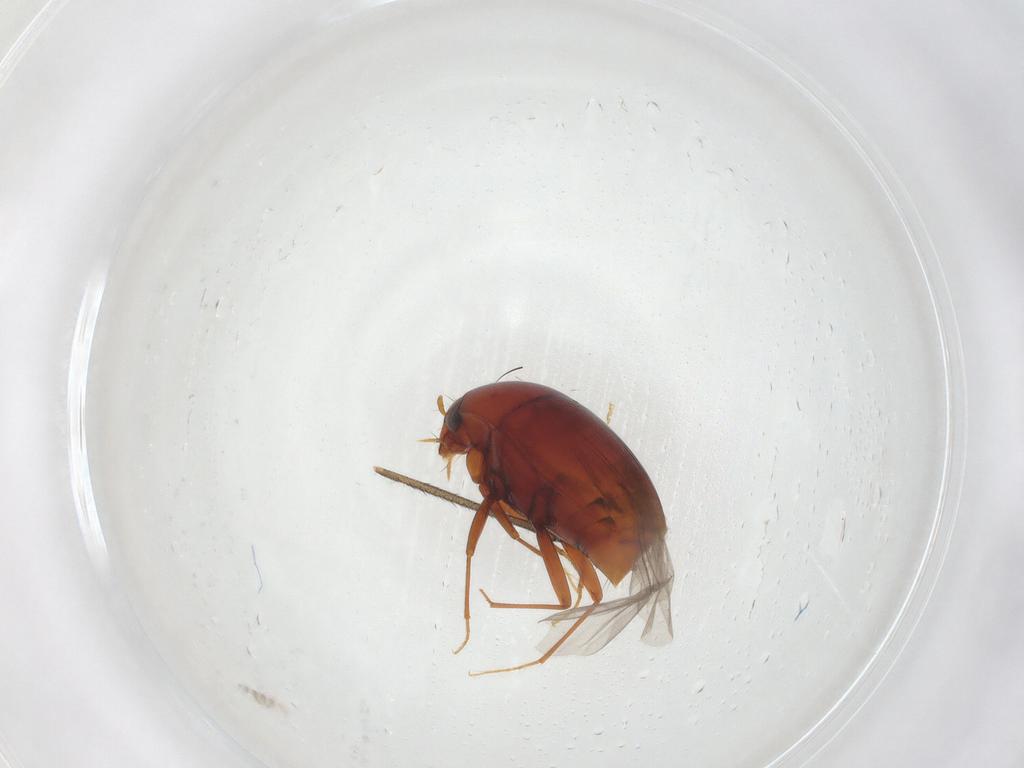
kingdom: Animalia
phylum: Arthropoda
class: Insecta
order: Coleoptera
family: Staphylinidae
